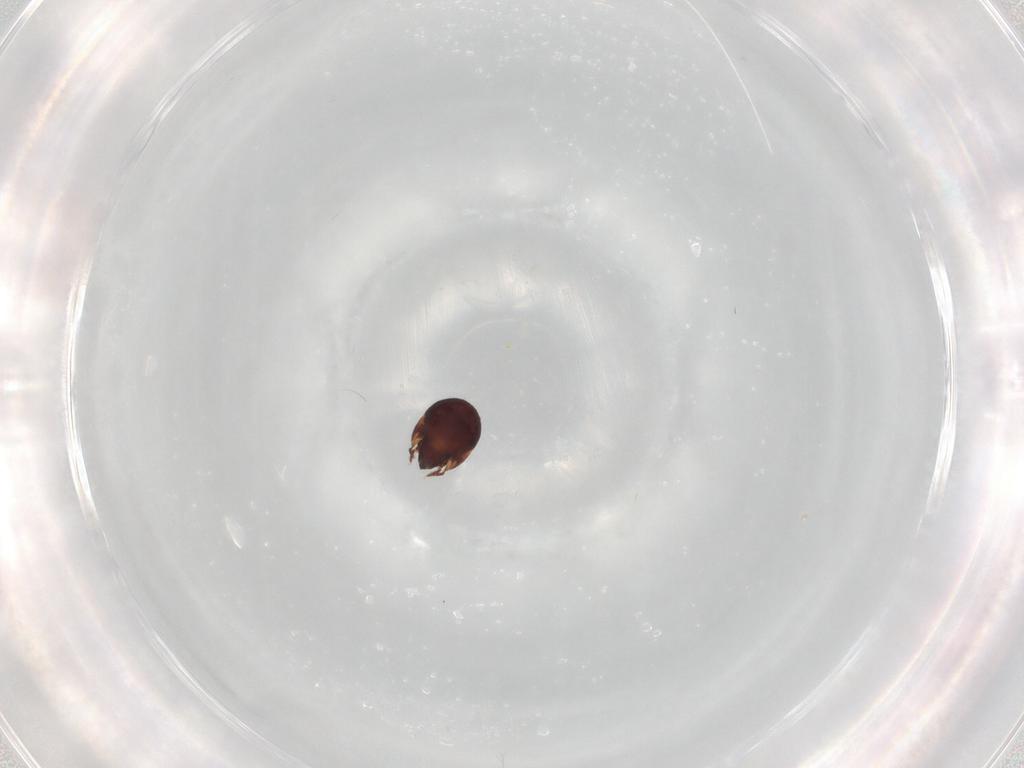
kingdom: Animalia
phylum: Arthropoda
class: Arachnida
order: Sarcoptiformes
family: Humerobatidae
